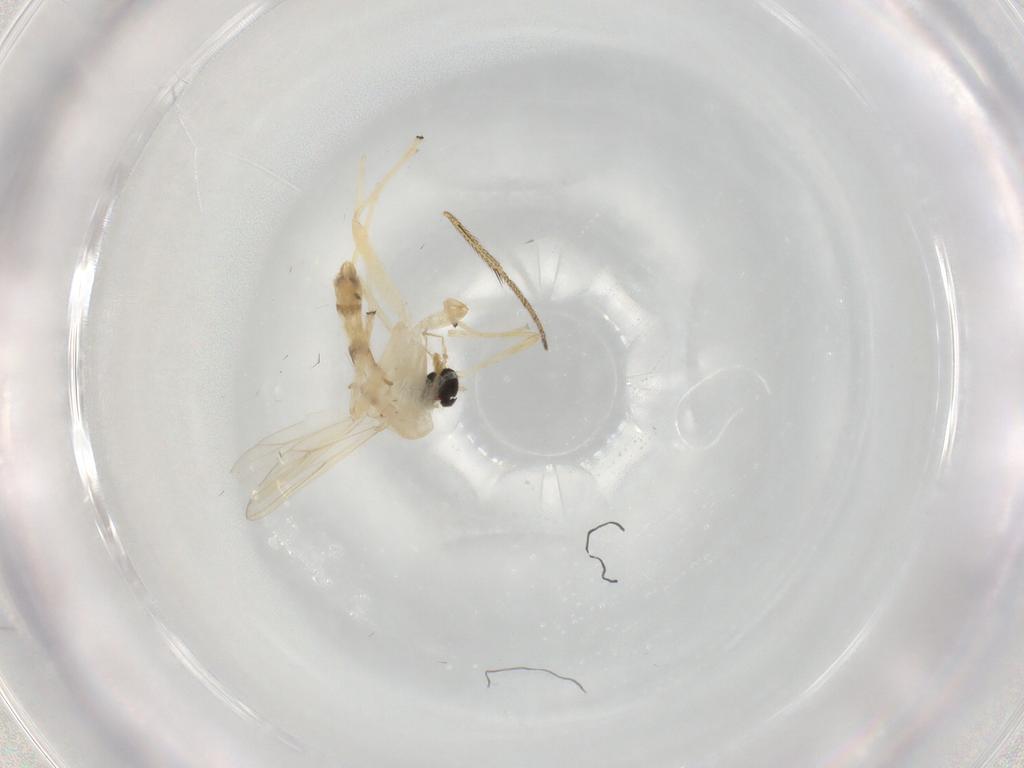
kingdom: Animalia
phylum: Arthropoda
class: Insecta
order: Diptera
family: Chironomidae
